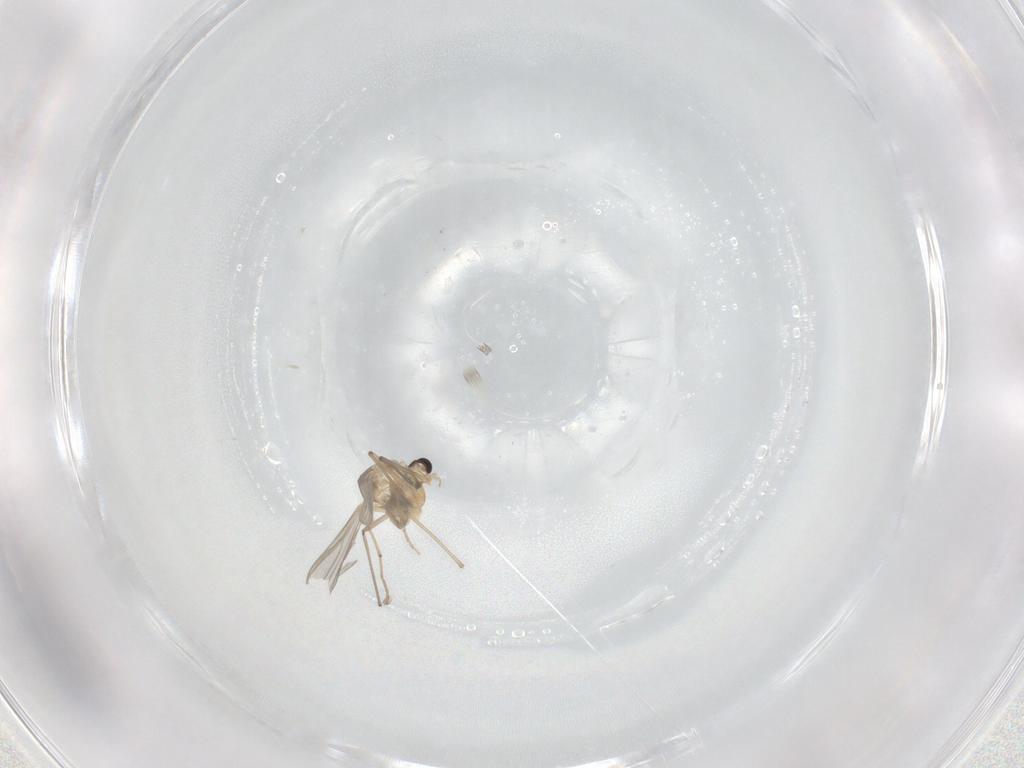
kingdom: Animalia
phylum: Arthropoda
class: Insecta
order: Diptera
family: Chironomidae
